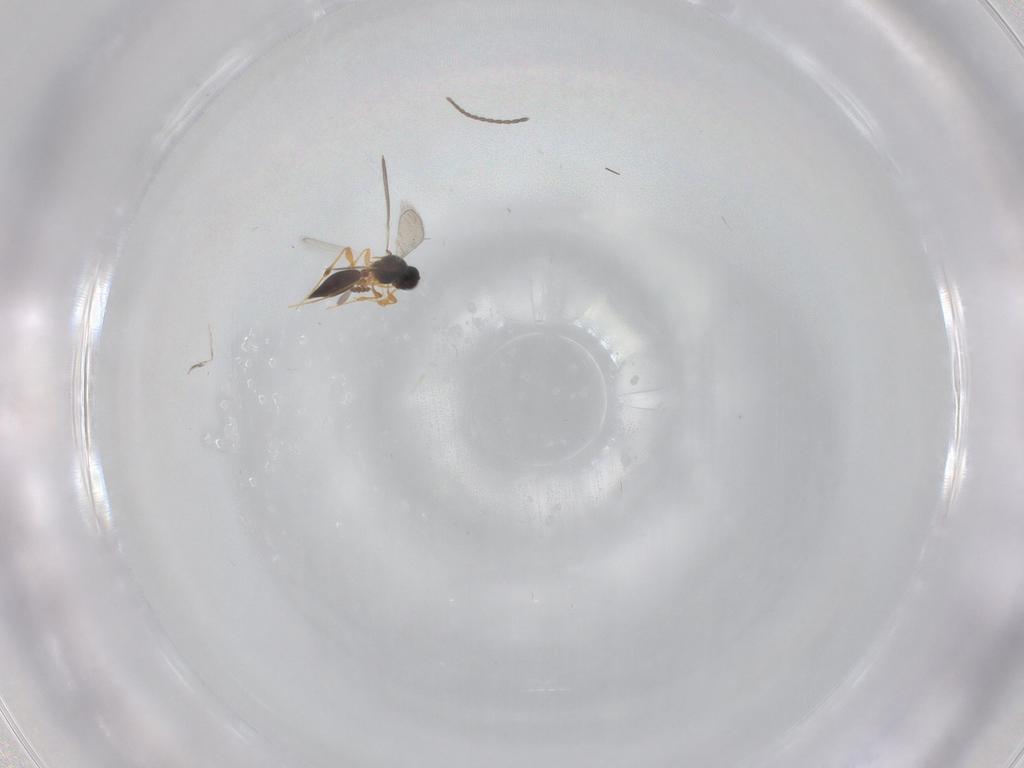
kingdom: Animalia
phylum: Arthropoda
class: Insecta
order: Hymenoptera
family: Platygastridae
